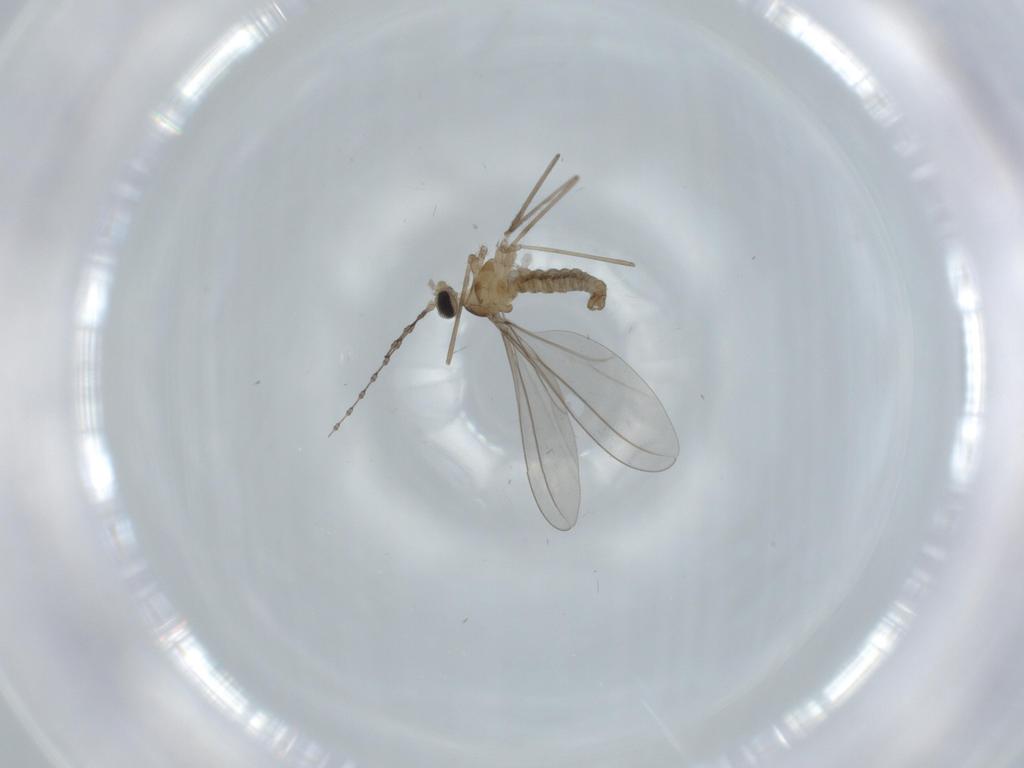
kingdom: Animalia
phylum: Arthropoda
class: Insecta
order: Diptera
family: Cecidomyiidae
